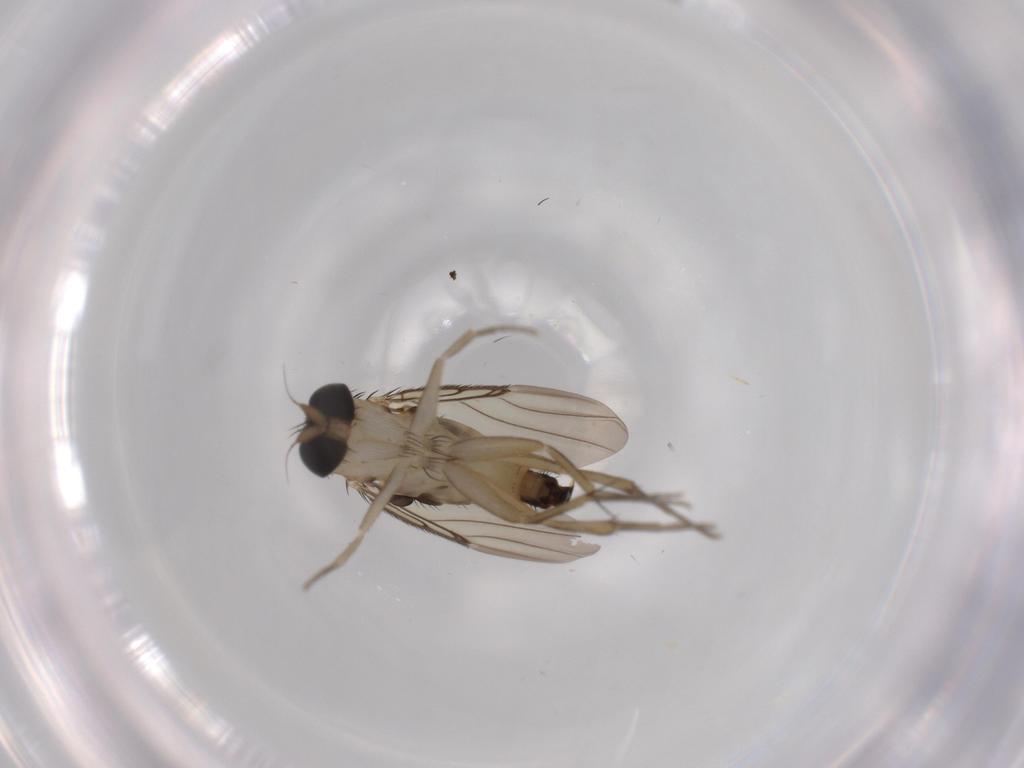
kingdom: Animalia
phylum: Arthropoda
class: Insecta
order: Diptera
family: Phoridae
